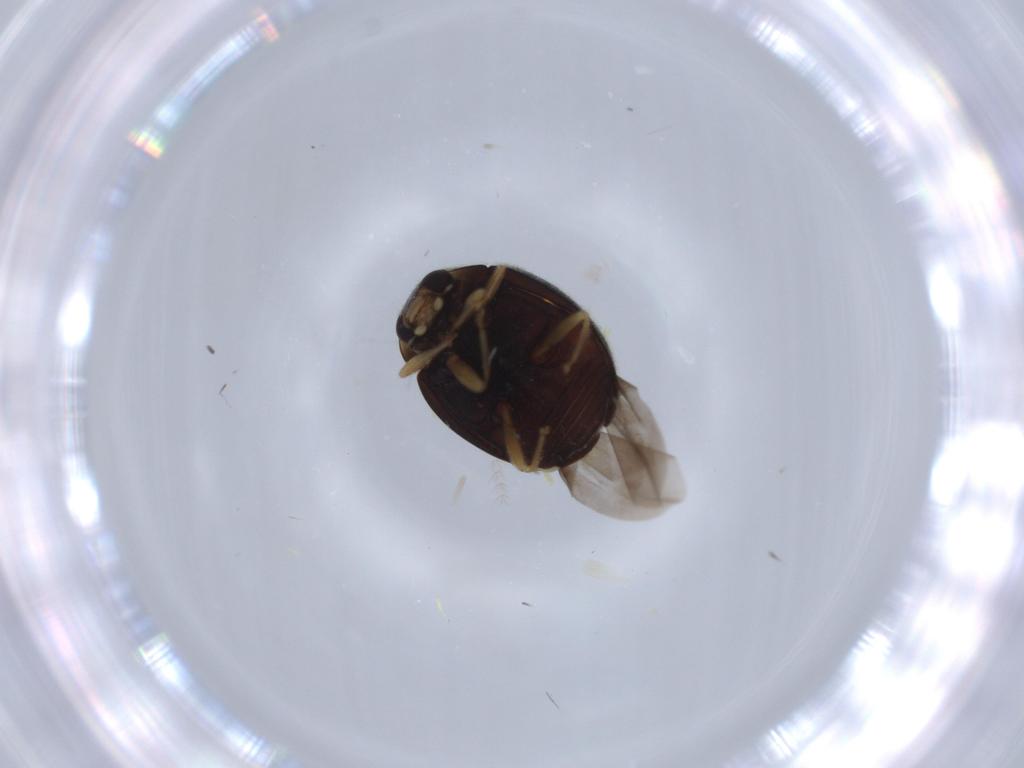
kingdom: Animalia
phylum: Arthropoda
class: Insecta
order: Coleoptera
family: Coccinellidae
